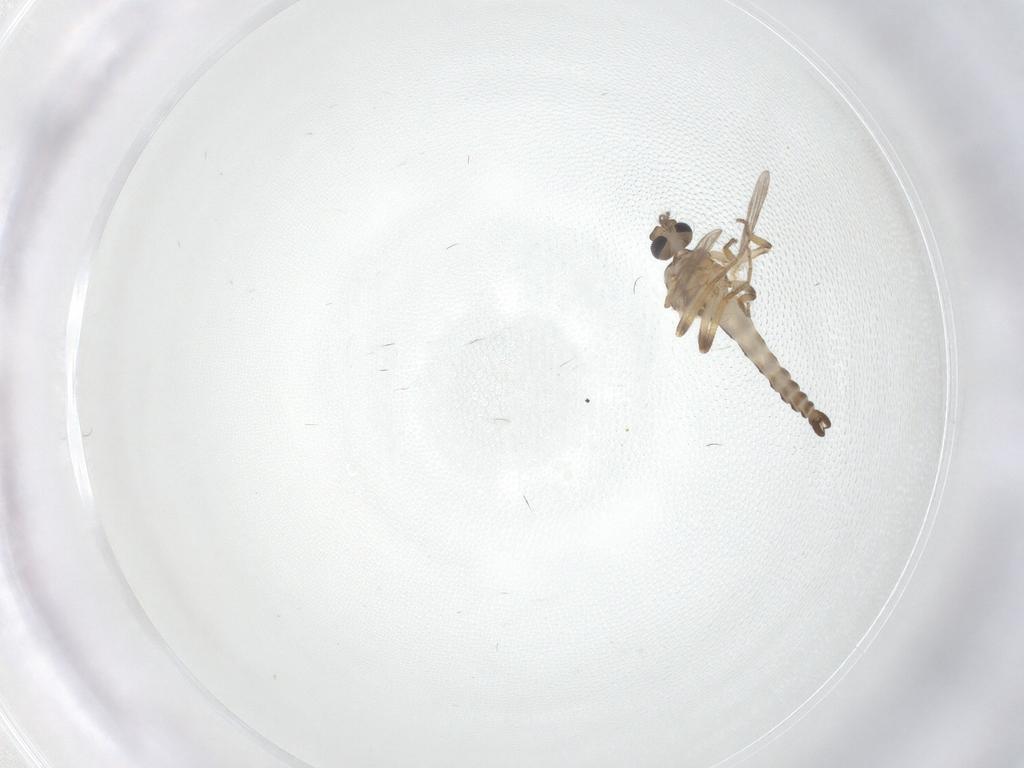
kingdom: Animalia
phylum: Arthropoda
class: Insecta
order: Diptera
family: Ceratopogonidae
